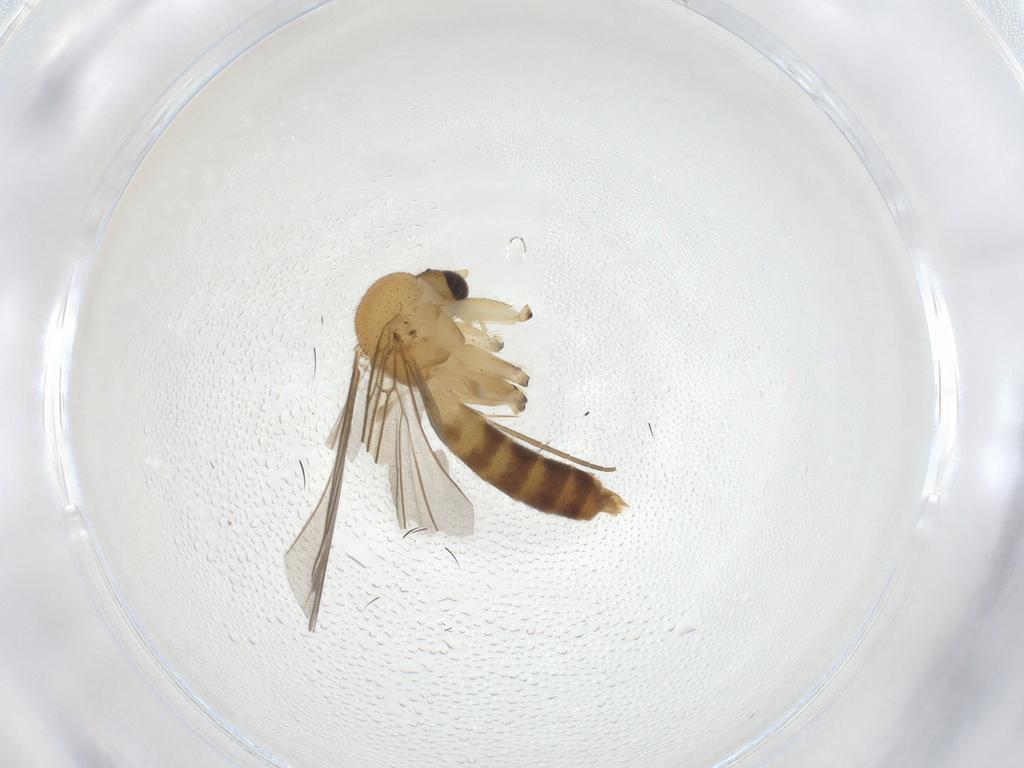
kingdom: Animalia
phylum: Arthropoda
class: Insecta
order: Diptera
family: Mycetophilidae
